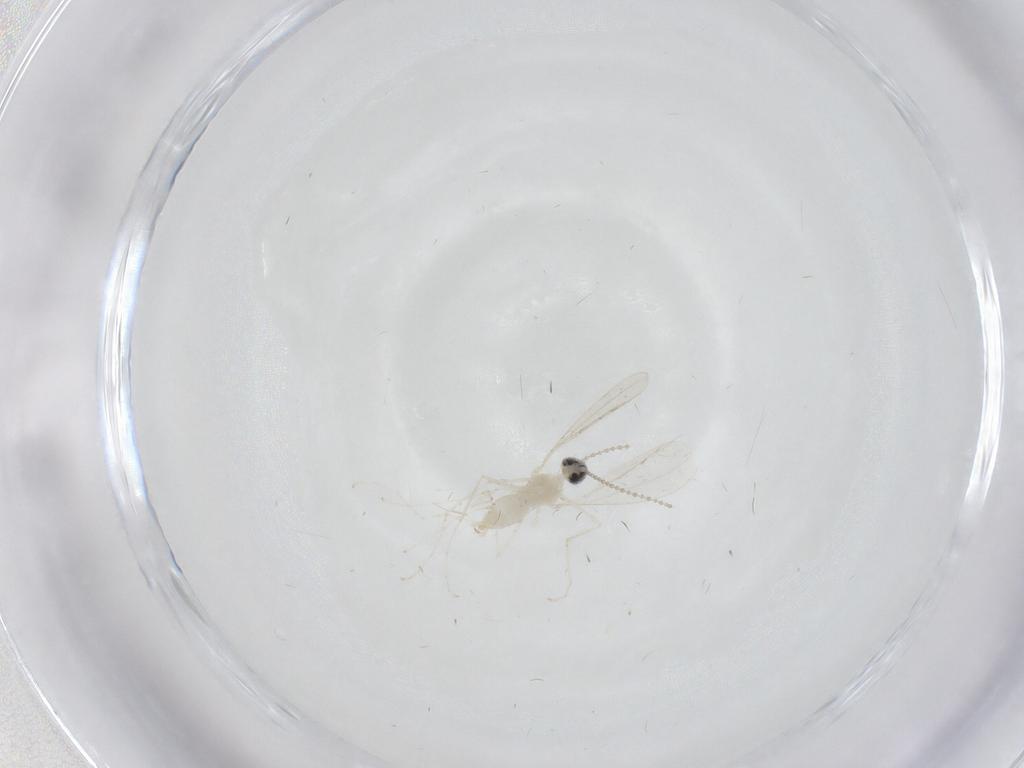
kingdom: Animalia
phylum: Arthropoda
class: Insecta
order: Diptera
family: Cecidomyiidae
